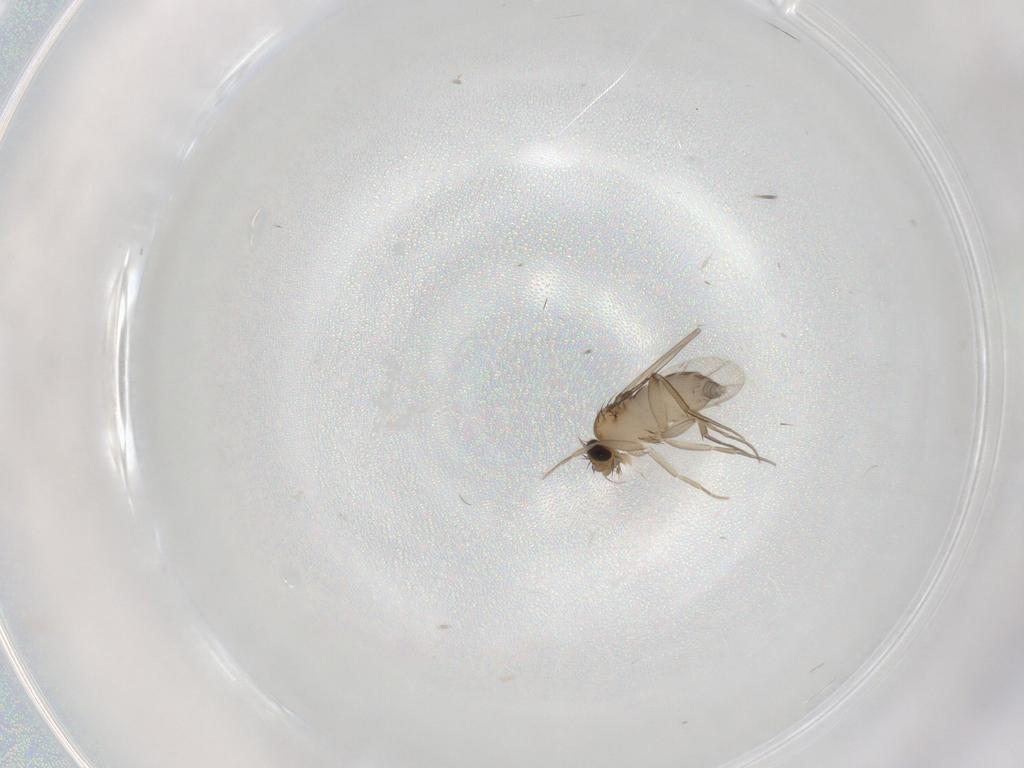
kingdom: Animalia
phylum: Arthropoda
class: Insecta
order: Diptera
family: Phoridae
